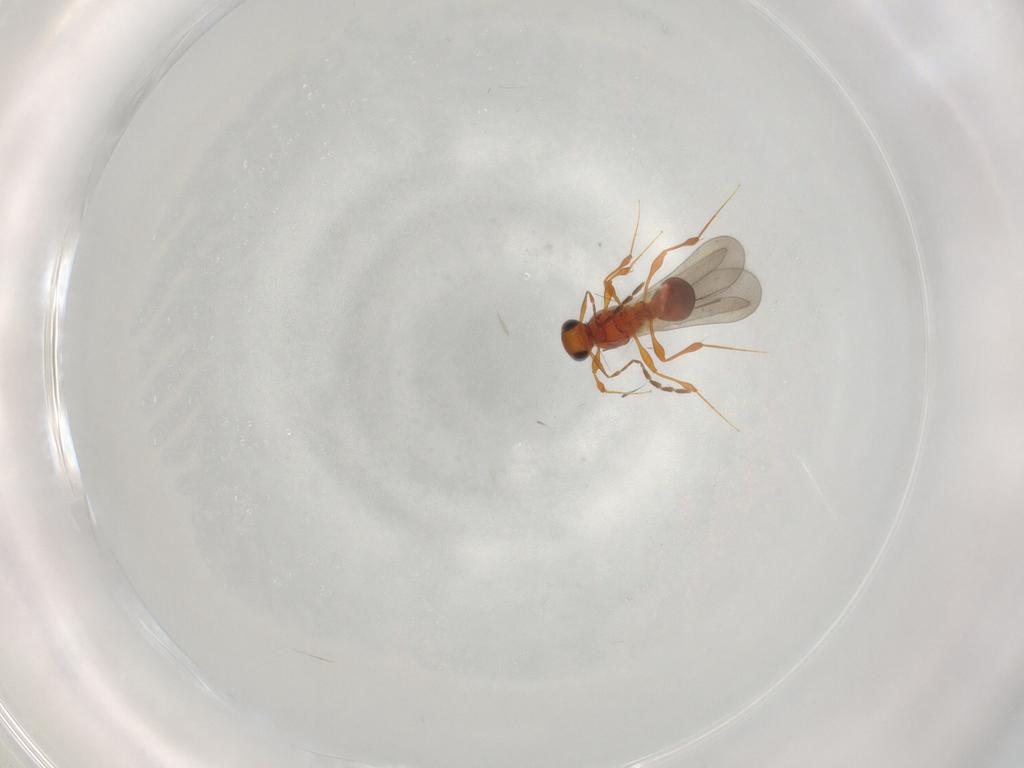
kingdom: Animalia
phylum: Arthropoda
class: Insecta
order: Hymenoptera
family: Platygastridae
